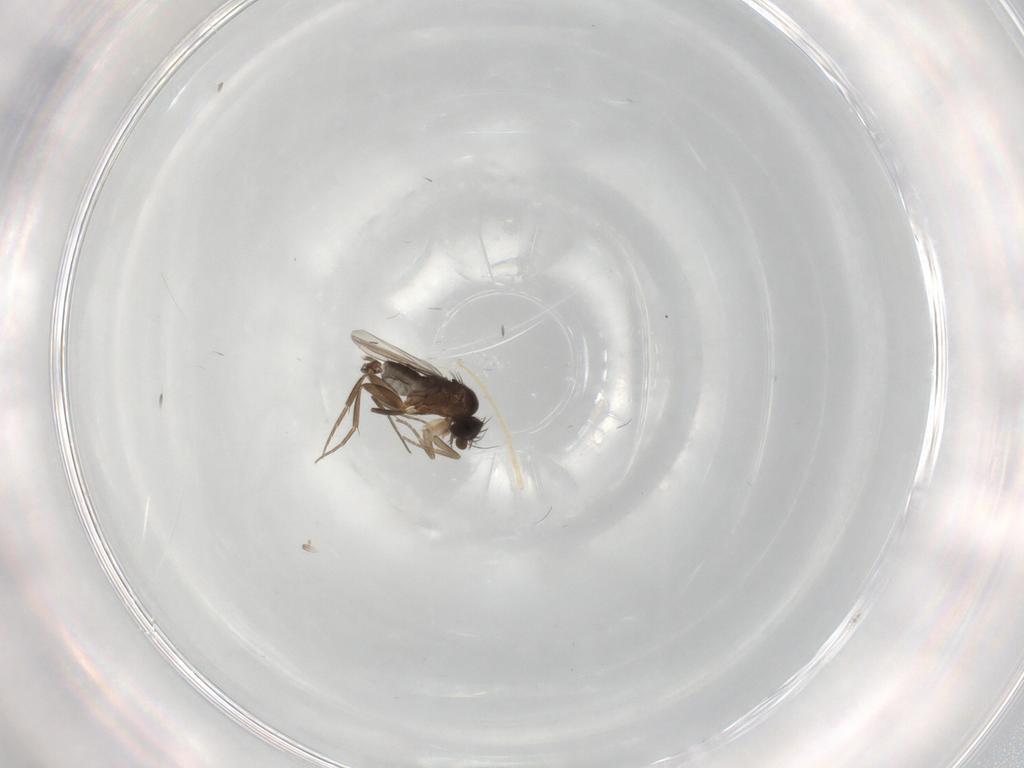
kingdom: Animalia
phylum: Arthropoda
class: Insecta
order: Diptera
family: Phoridae
